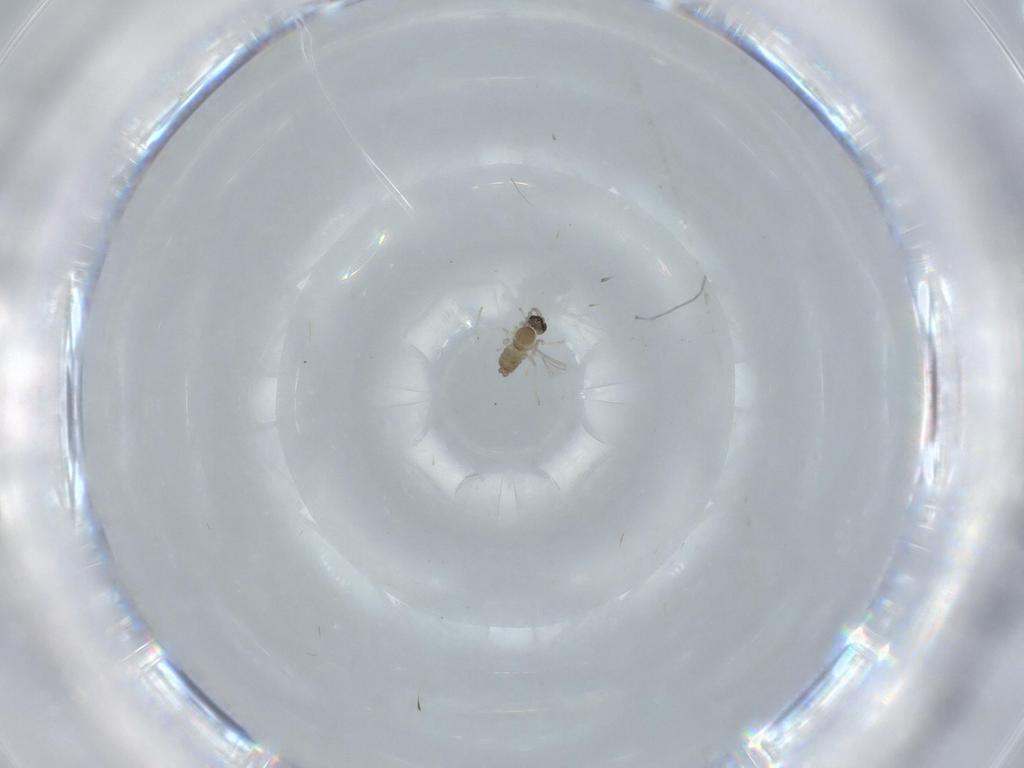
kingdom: Animalia
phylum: Arthropoda
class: Insecta
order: Diptera
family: Cecidomyiidae
